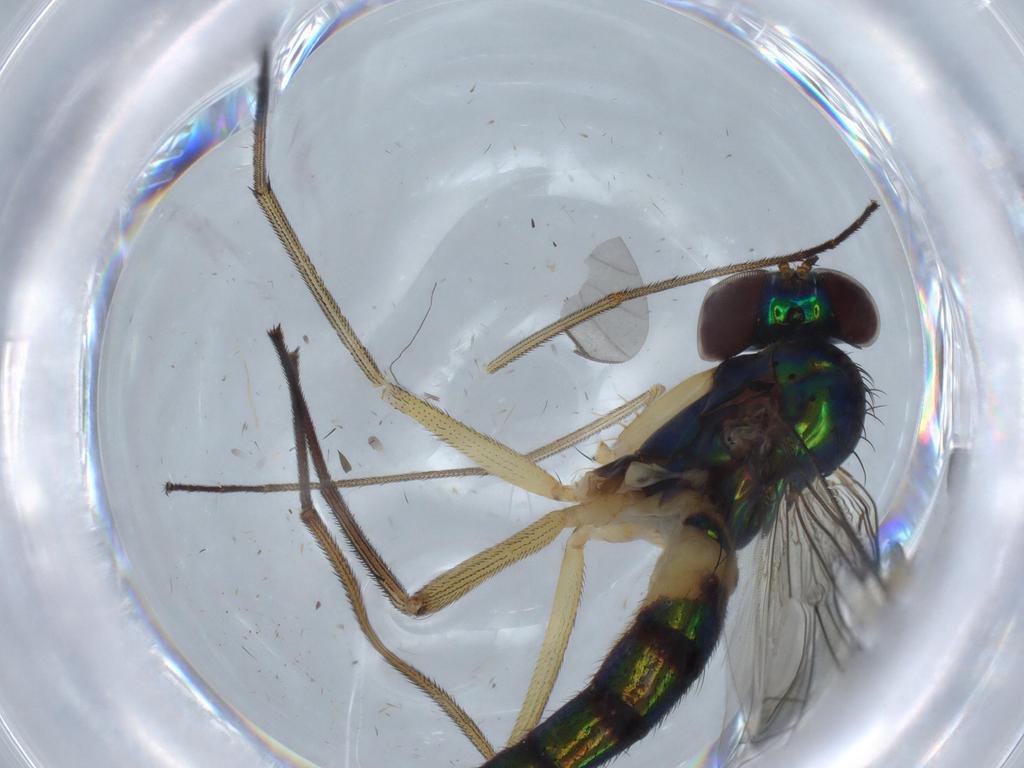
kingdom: Animalia
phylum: Arthropoda
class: Insecta
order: Diptera
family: Dolichopodidae
